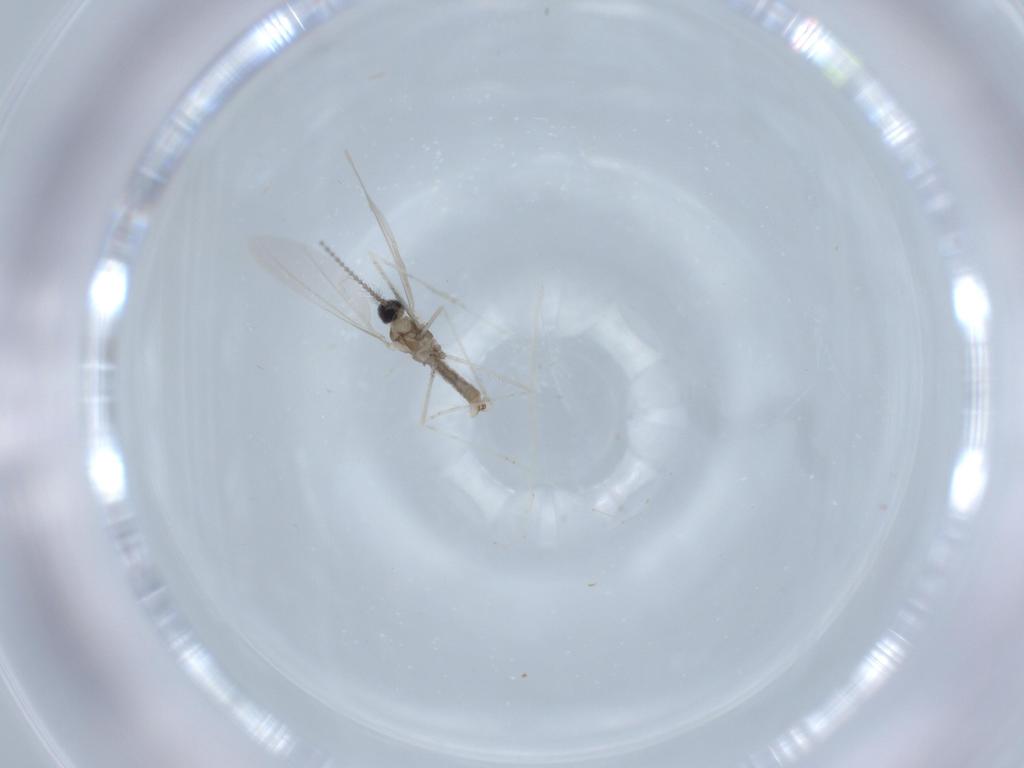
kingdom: Animalia
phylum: Arthropoda
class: Insecta
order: Diptera
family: Cecidomyiidae
